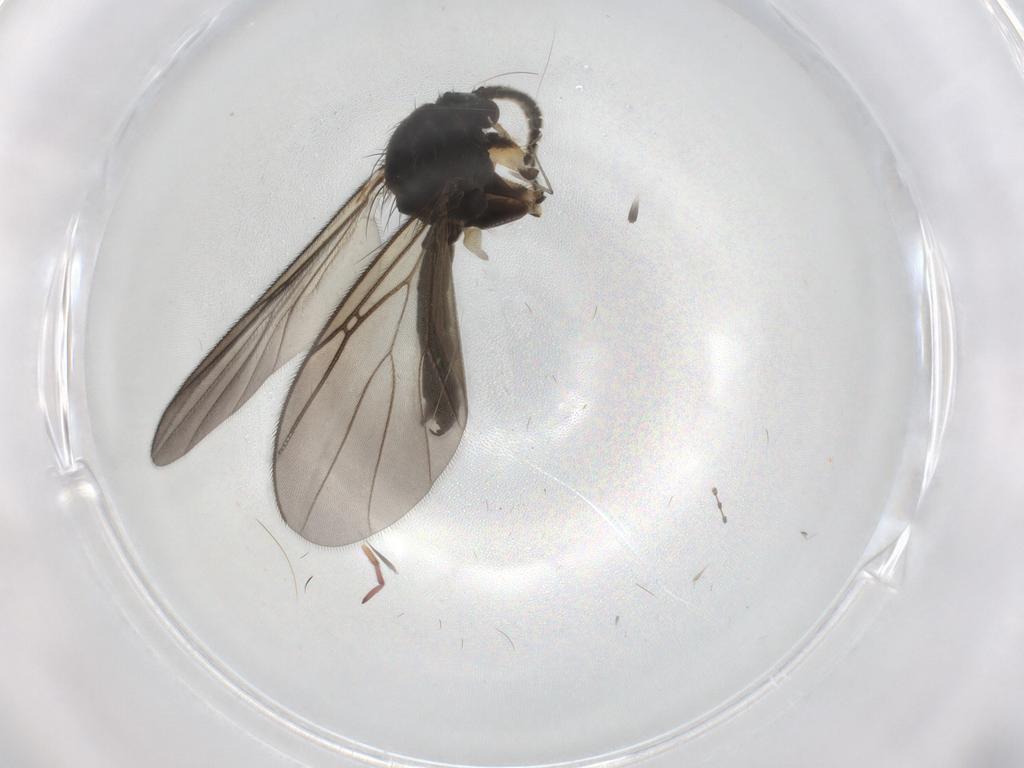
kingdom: Animalia
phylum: Arthropoda
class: Insecta
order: Diptera
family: Mycetophilidae
